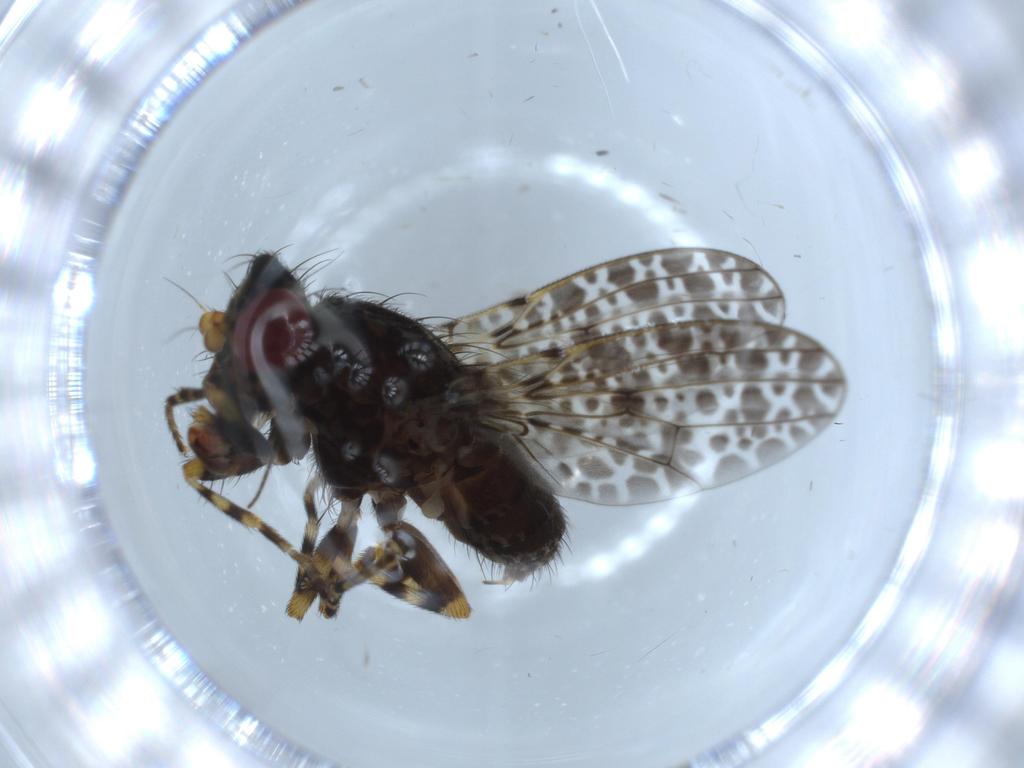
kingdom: Animalia
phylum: Arthropoda
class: Insecta
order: Diptera
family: Odiniidae
